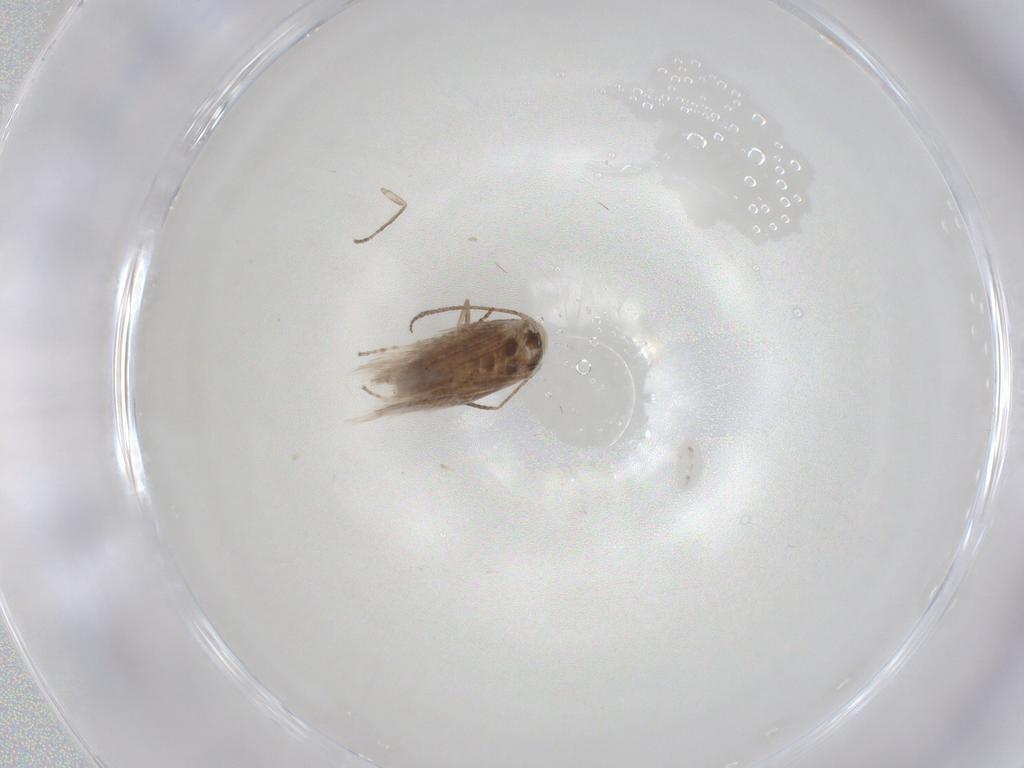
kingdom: Animalia
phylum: Arthropoda
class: Insecta
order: Lepidoptera
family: Depressariidae
